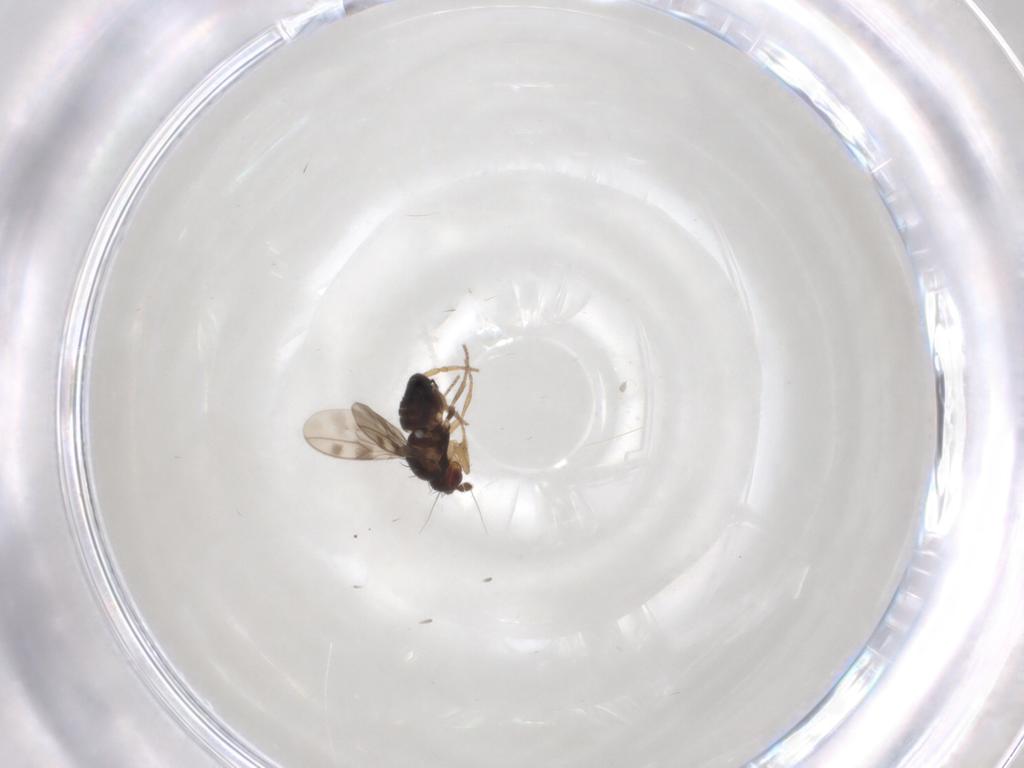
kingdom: Animalia
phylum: Arthropoda
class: Insecta
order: Diptera
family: Sphaeroceridae
